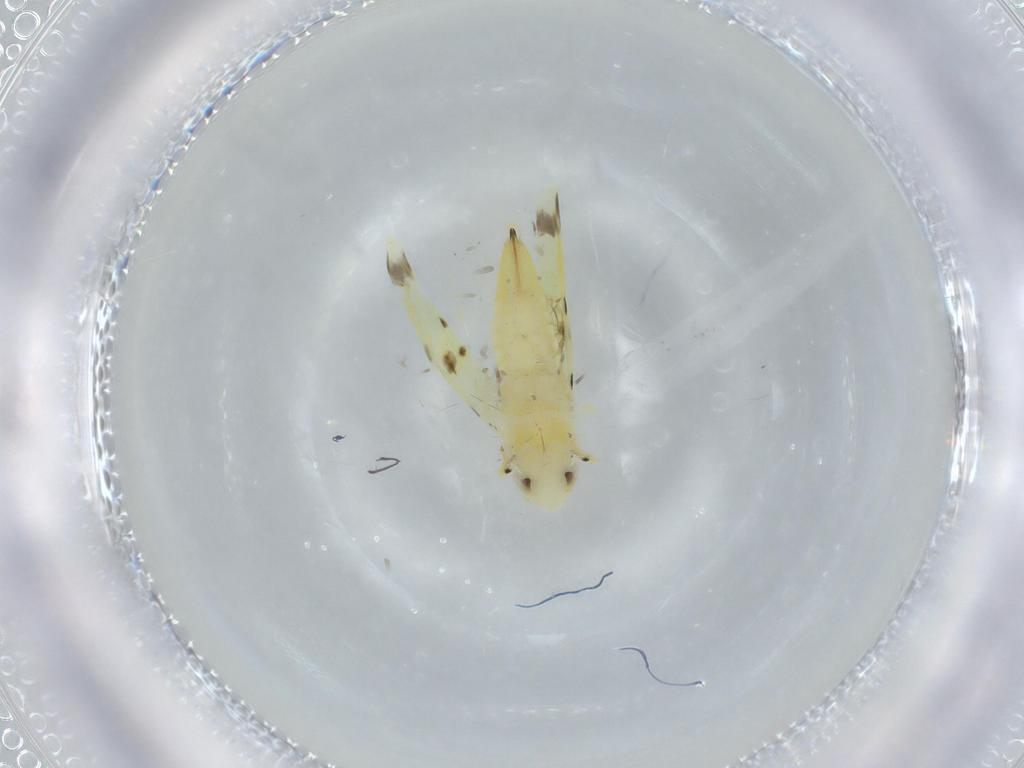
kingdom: Animalia
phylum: Arthropoda
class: Insecta
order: Hemiptera
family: Cicadellidae
